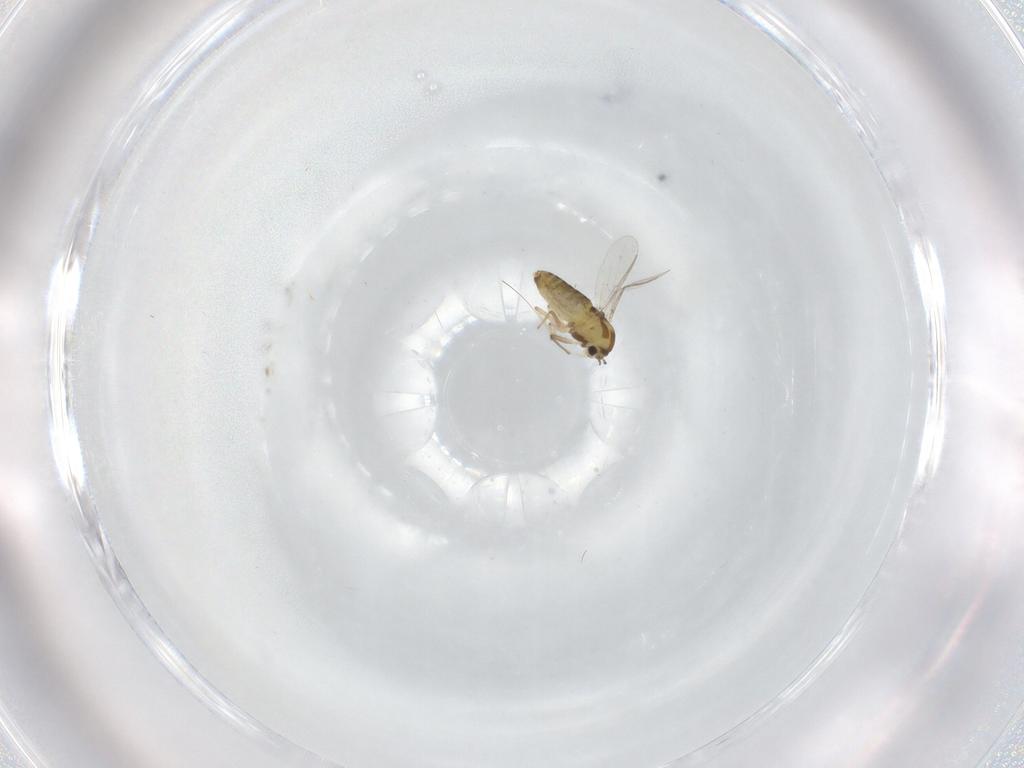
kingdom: Animalia
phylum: Arthropoda
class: Insecta
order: Diptera
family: Chironomidae
